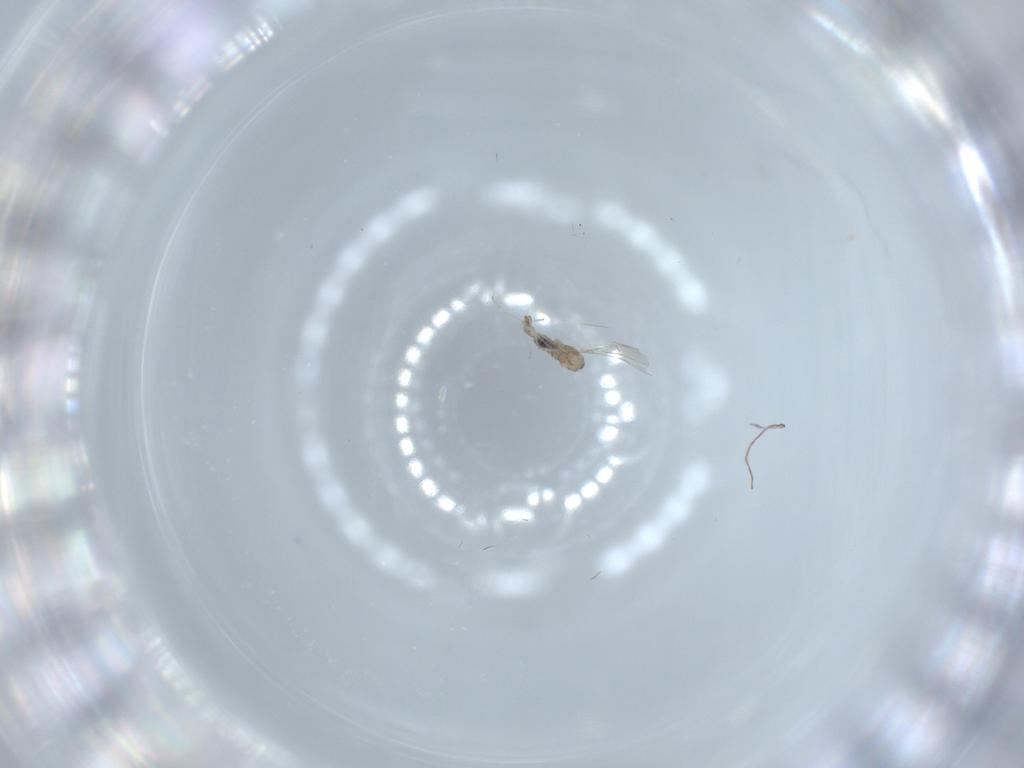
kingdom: Animalia
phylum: Arthropoda
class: Insecta
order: Diptera
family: Cecidomyiidae
